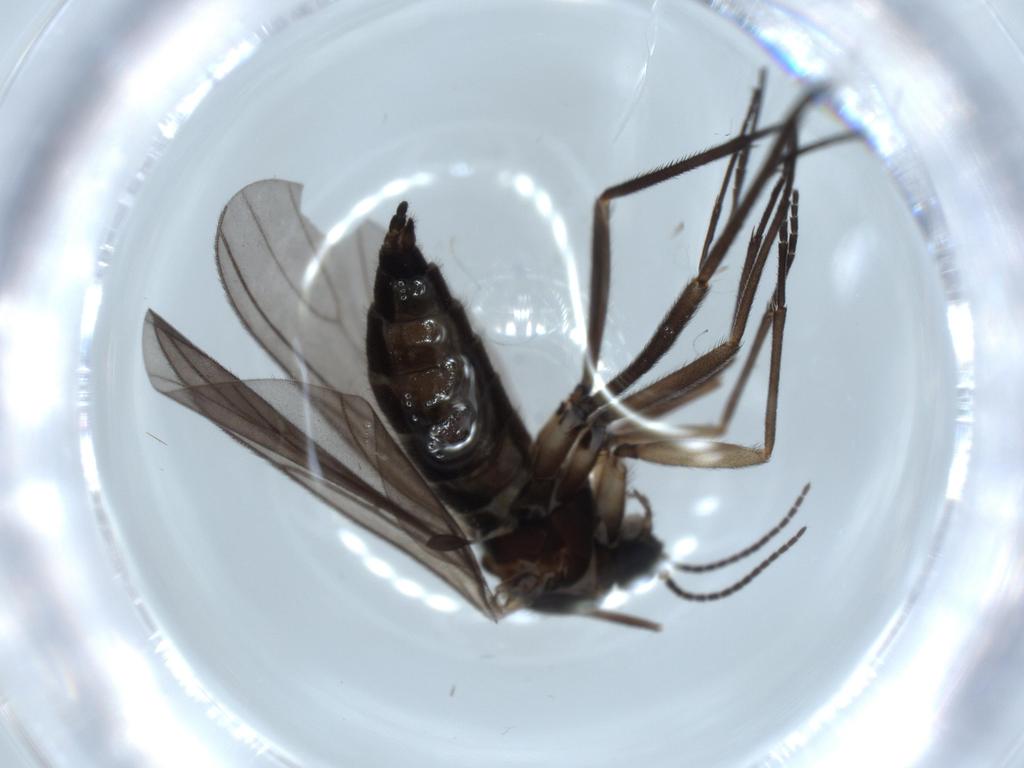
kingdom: Animalia
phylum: Arthropoda
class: Insecta
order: Diptera
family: Sciaridae
